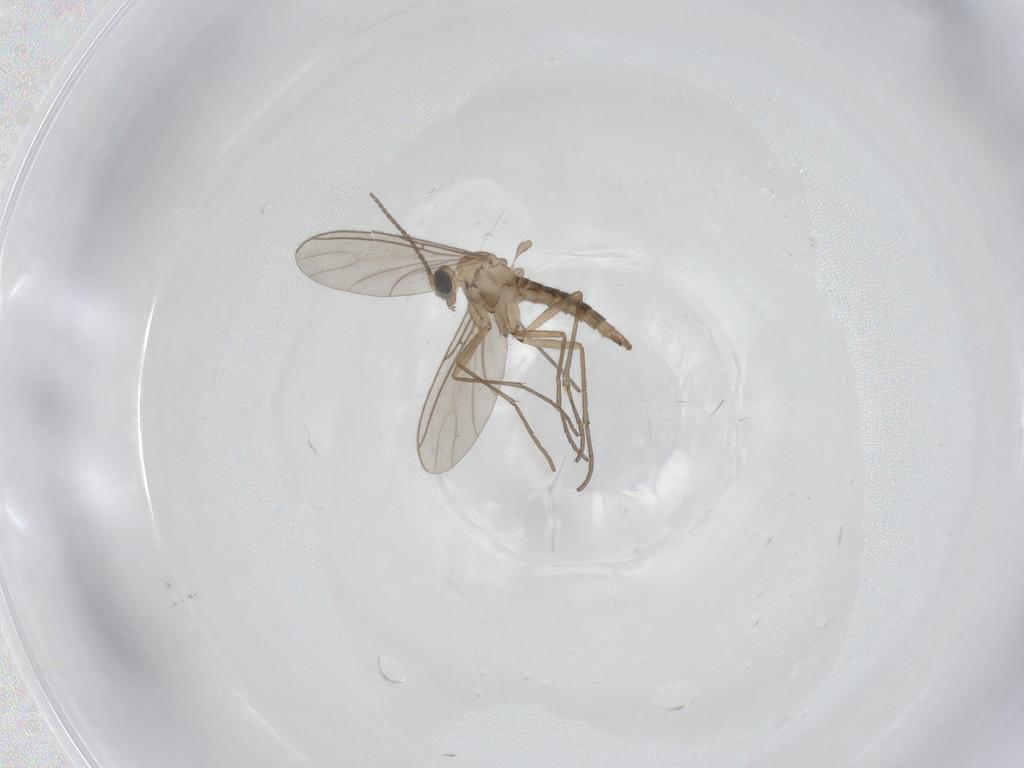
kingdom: Animalia
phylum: Arthropoda
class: Insecta
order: Diptera
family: Sciaridae
